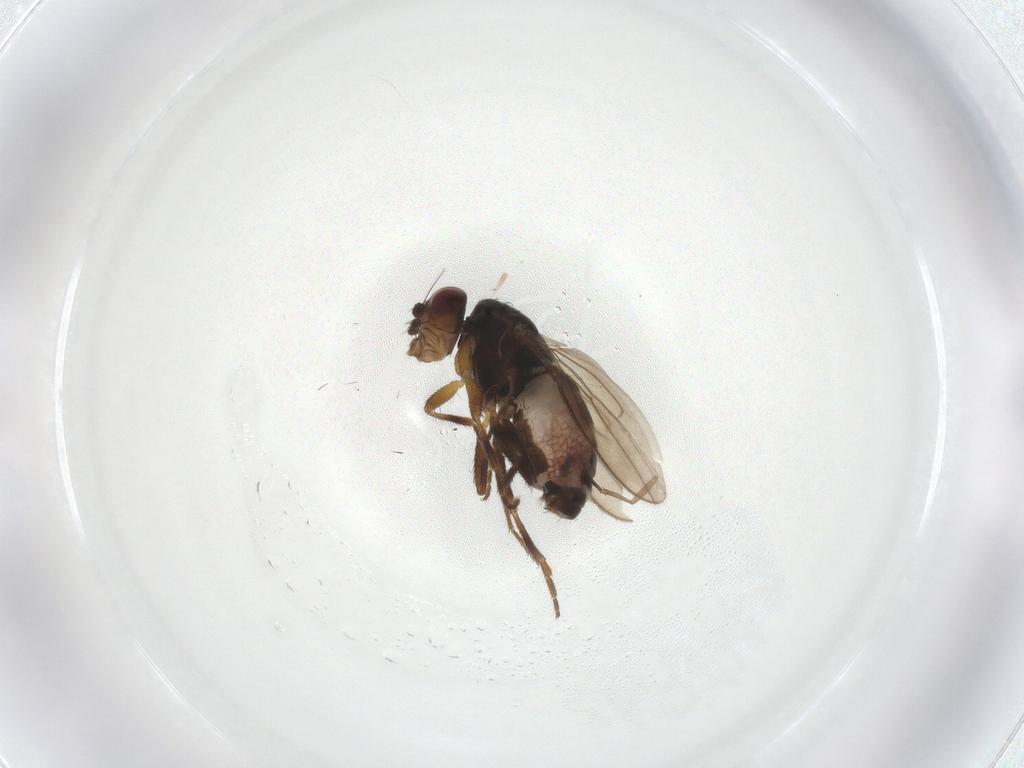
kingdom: Animalia
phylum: Arthropoda
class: Insecta
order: Diptera
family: Sphaeroceridae
